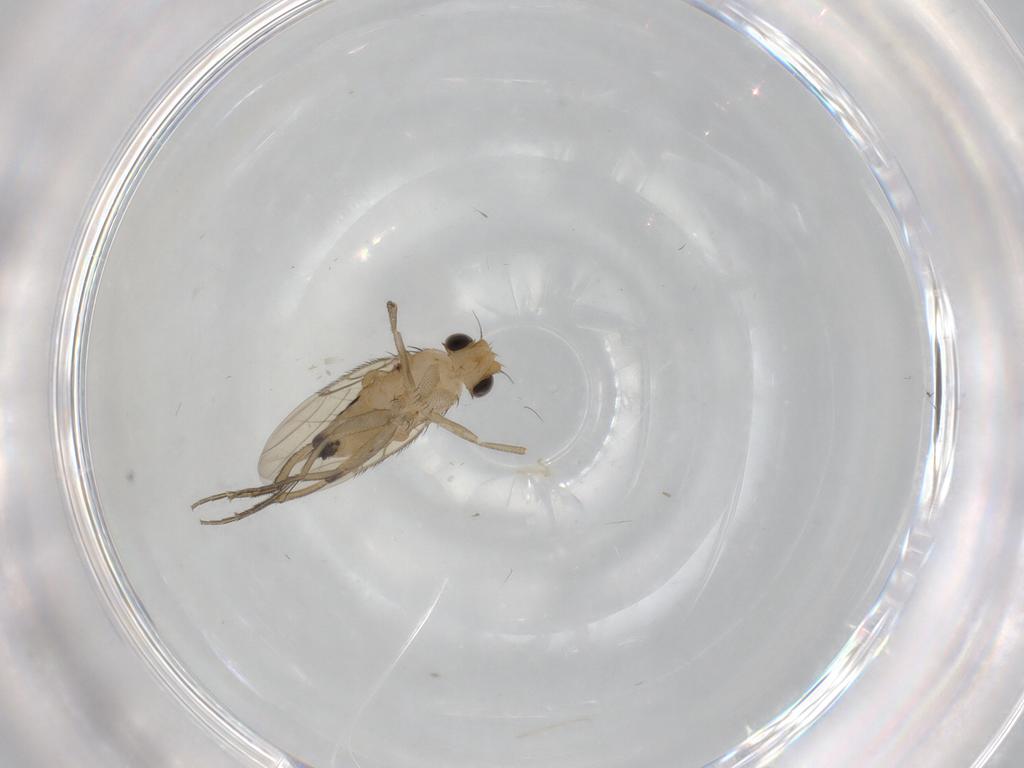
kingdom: Animalia
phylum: Arthropoda
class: Insecta
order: Diptera
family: Phoridae
